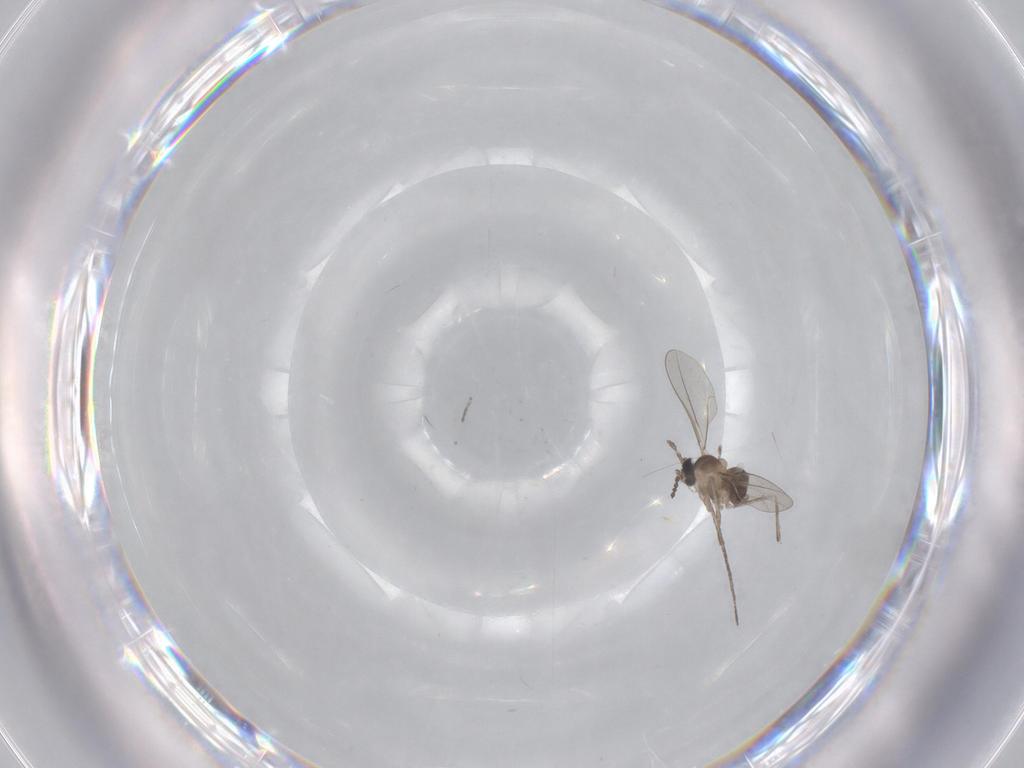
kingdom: Animalia
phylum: Arthropoda
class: Insecta
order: Diptera
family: Cecidomyiidae
